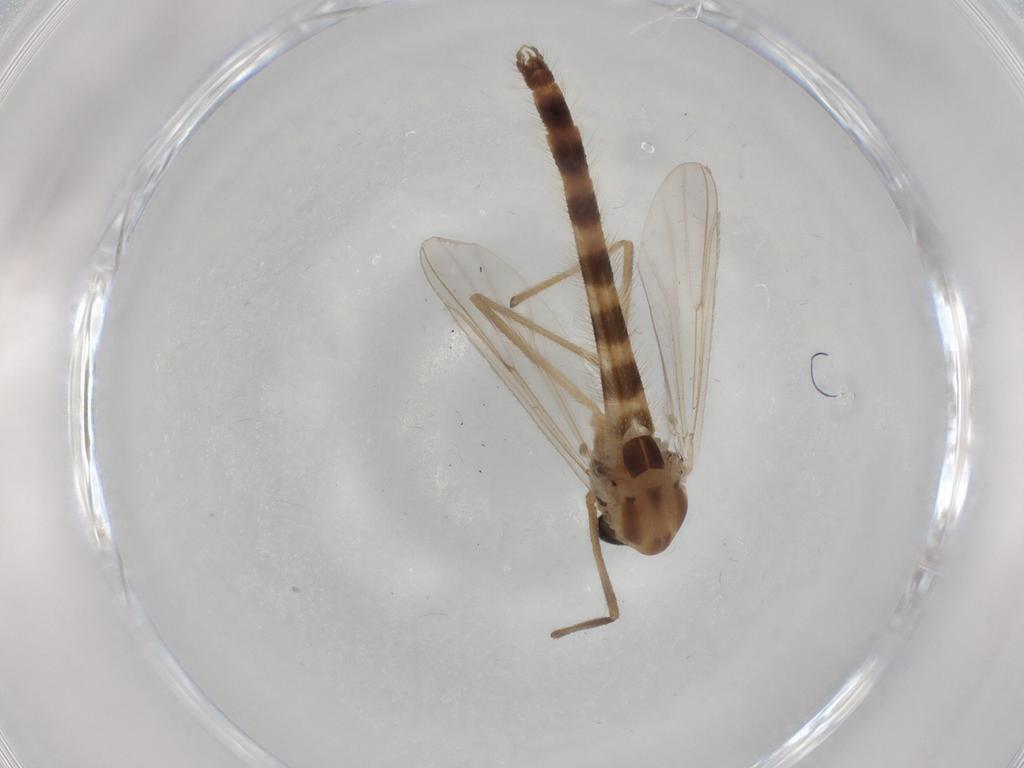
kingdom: Animalia
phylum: Arthropoda
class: Insecta
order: Diptera
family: Chironomidae
